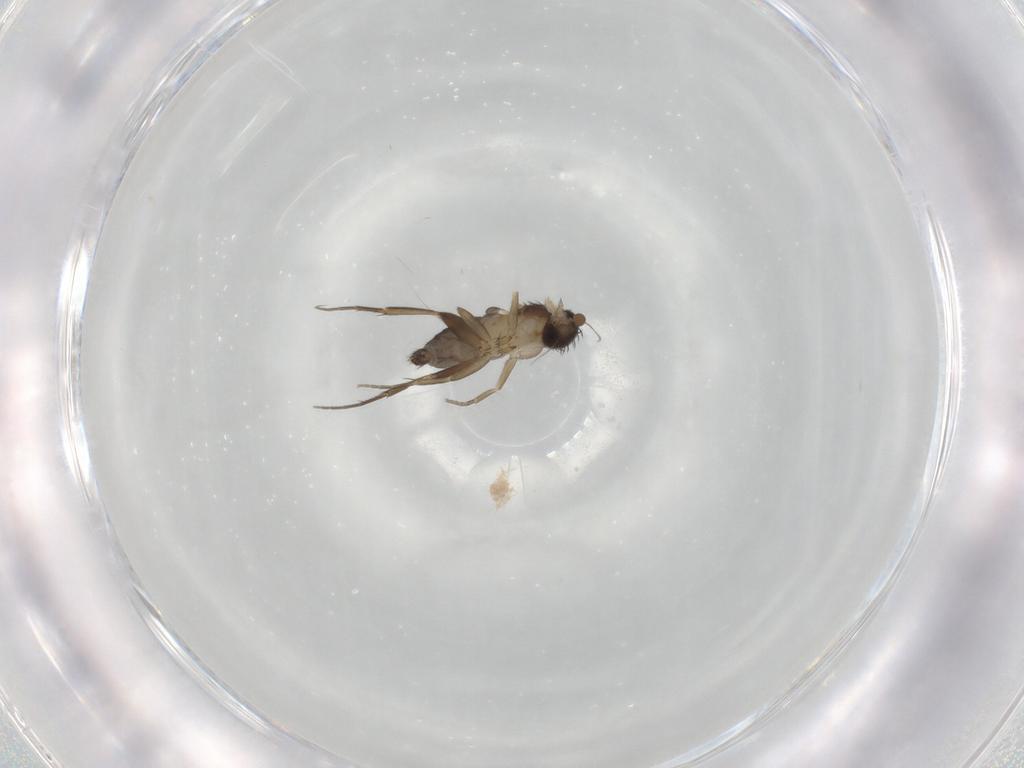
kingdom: Animalia
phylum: Arthropoda
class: Insecta
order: Diptera
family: Phoridae
